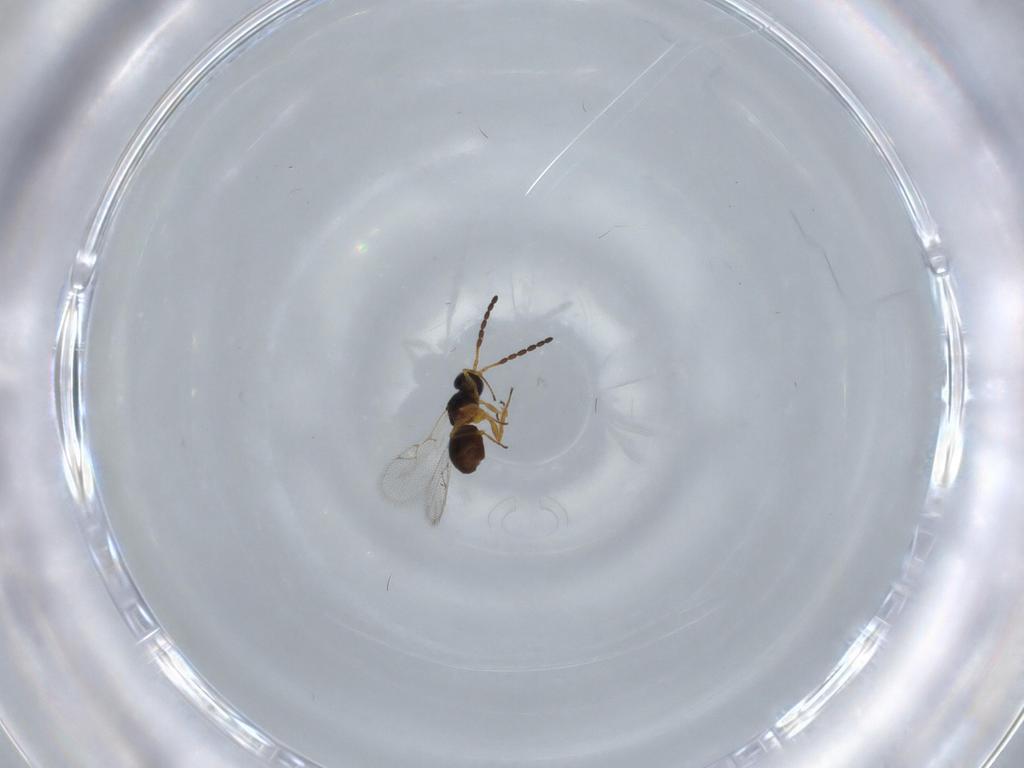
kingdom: Animalia
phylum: Arthropoda
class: Insecta
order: Hymenoptera
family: Figitidae
